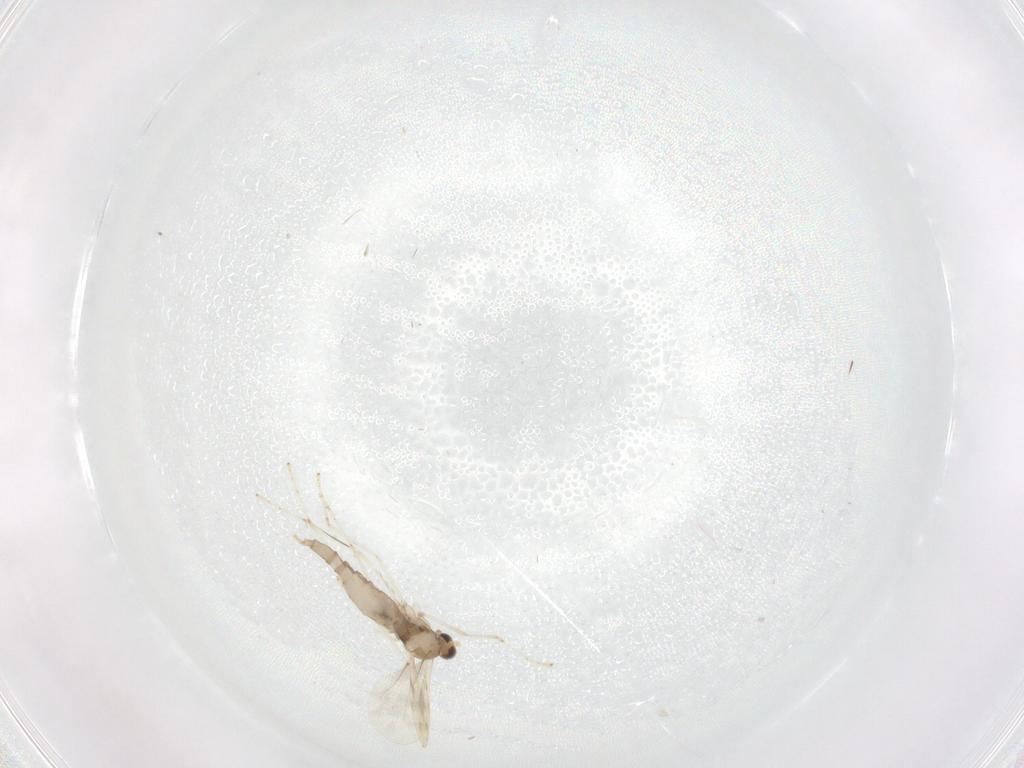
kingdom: Animalia
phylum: Arthropoda
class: Insecta
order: Diptera
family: Cecidomyiidae
